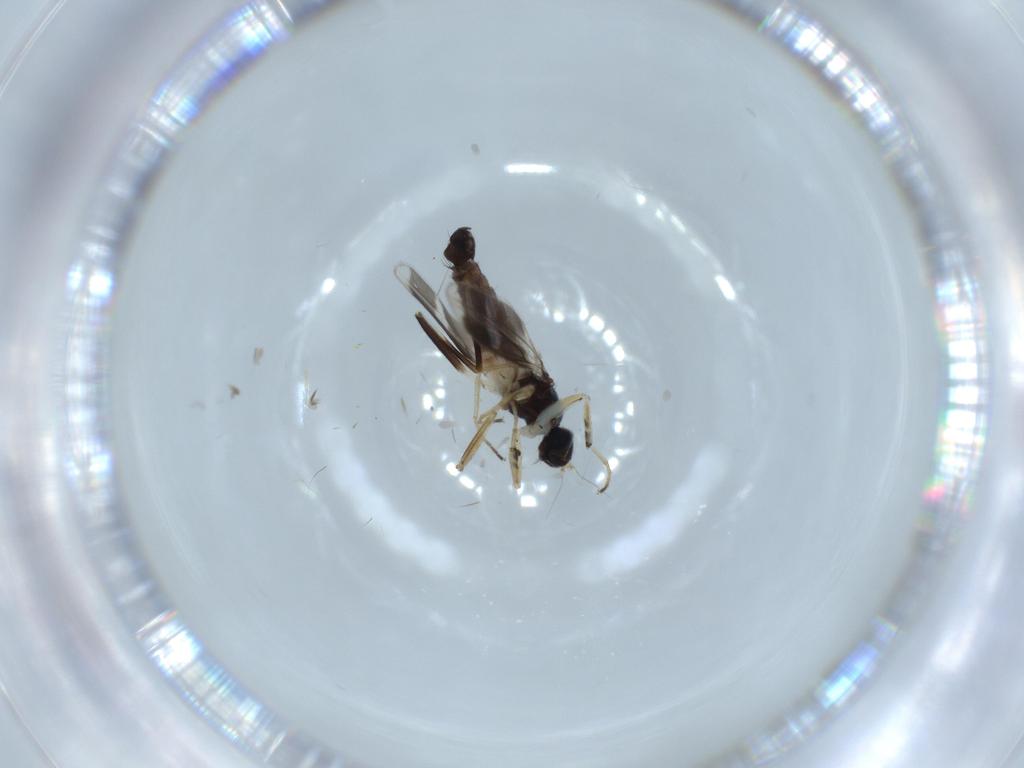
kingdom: Animalia
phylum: Arthropoda
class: Insecta
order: Diptera
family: Hybotidae
